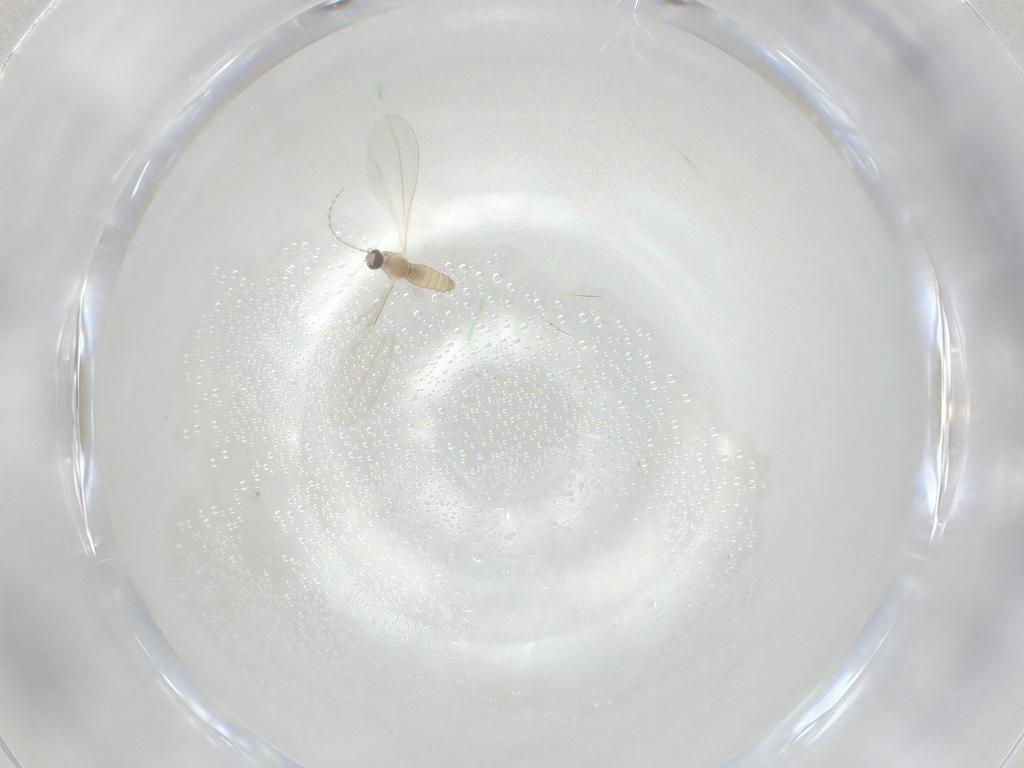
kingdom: Animalia
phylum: Arthropoda
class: Insecta
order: Diptera
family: Cecidomyiidae
